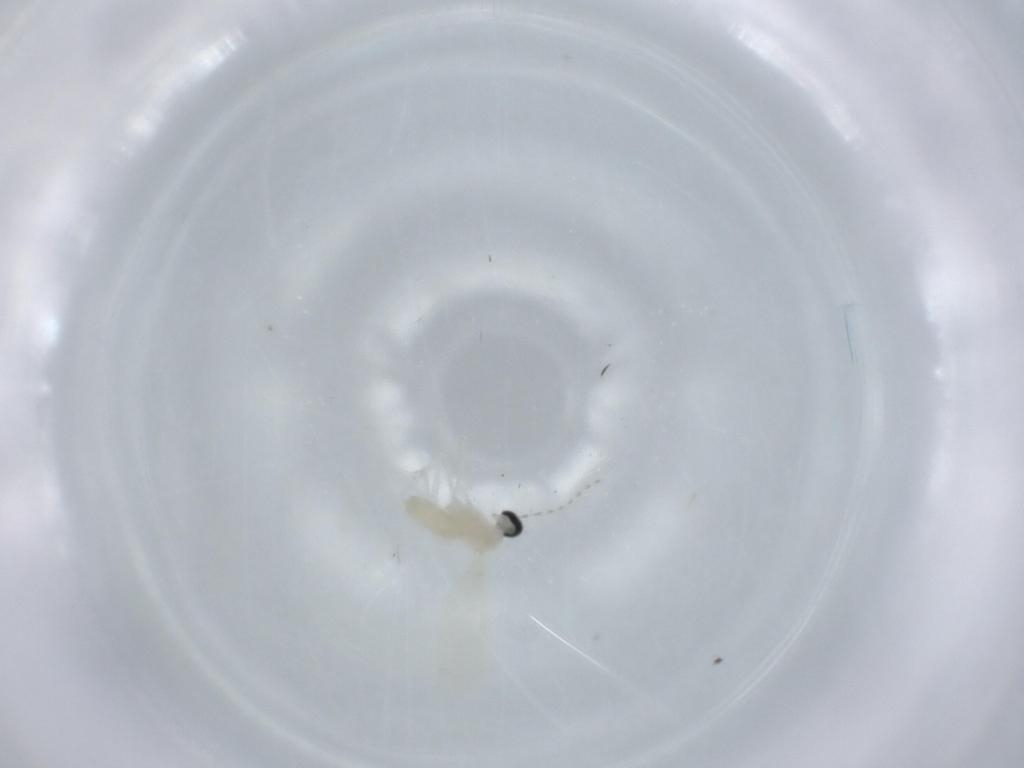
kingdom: Animalia
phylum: Arthropoda
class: Insecta
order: Diptera
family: Cecidomyiidae
